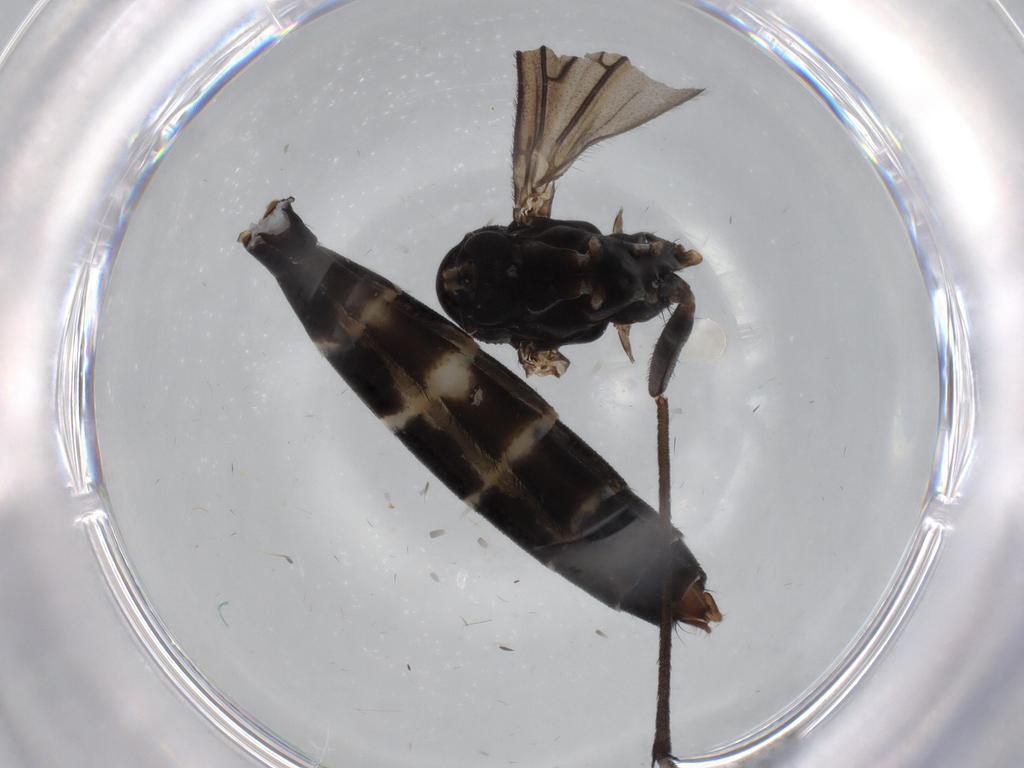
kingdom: Animalia
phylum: Arthropoda
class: Insecta
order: Diptera
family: Ditomyiidae
